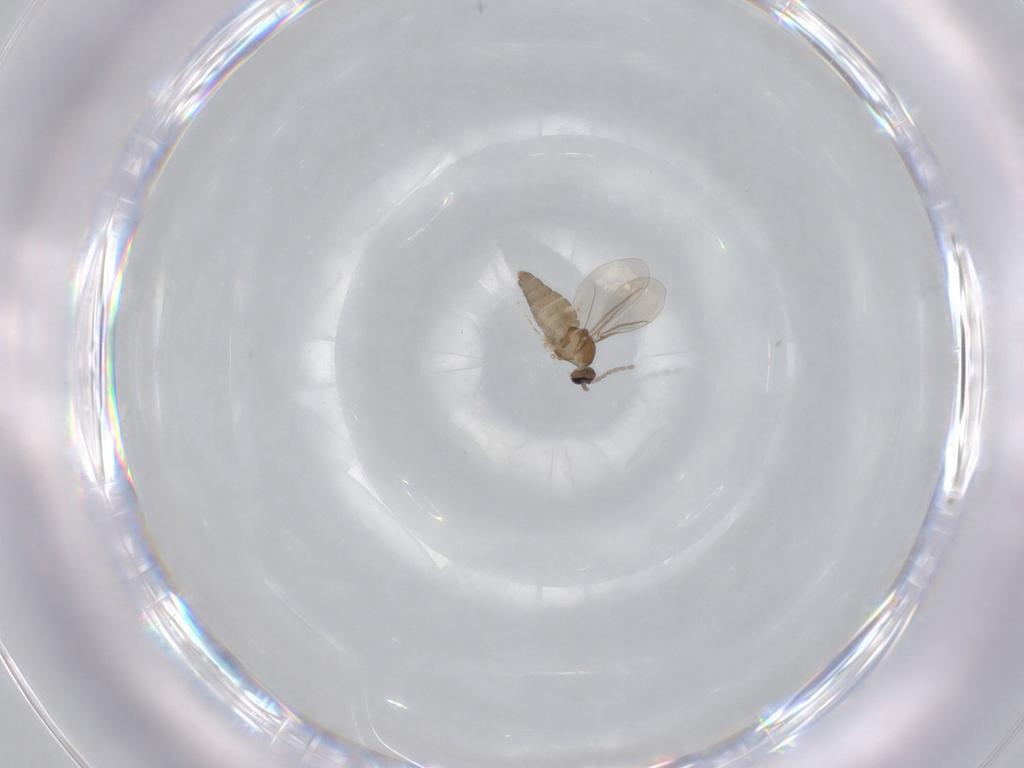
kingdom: Animalia
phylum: Arthropoda
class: Insecta
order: Diptera
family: Cecidomyiidae
